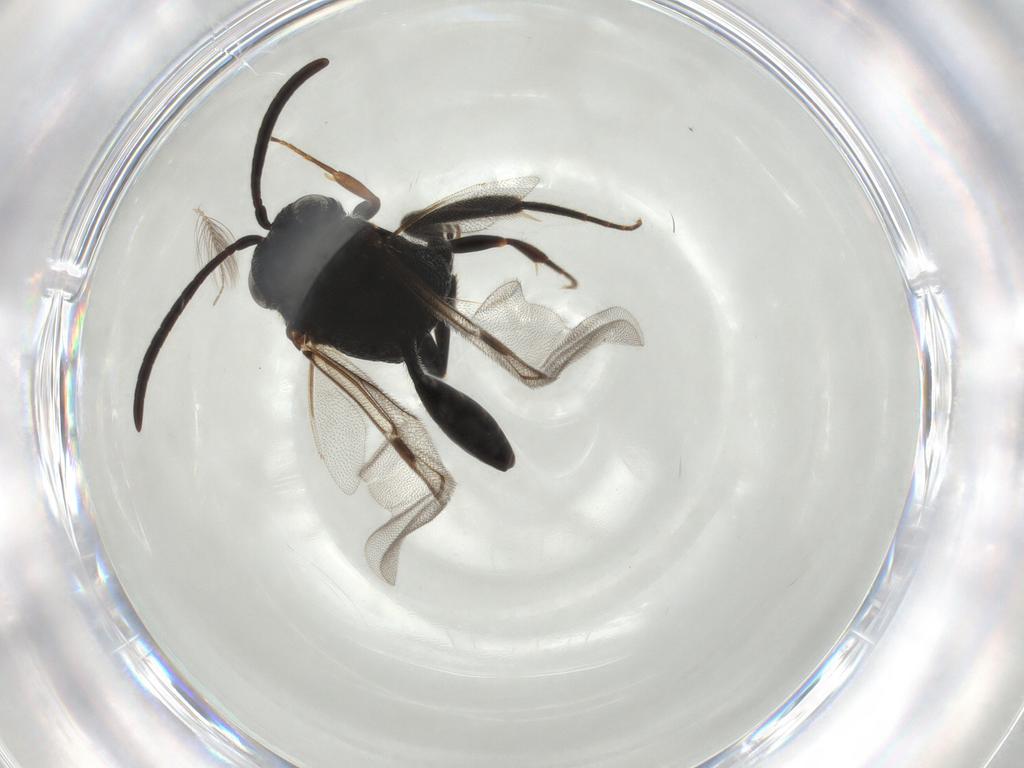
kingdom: Animalia
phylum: Arthropoda
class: Insecta
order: Hymenoptera
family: Evaniidae
